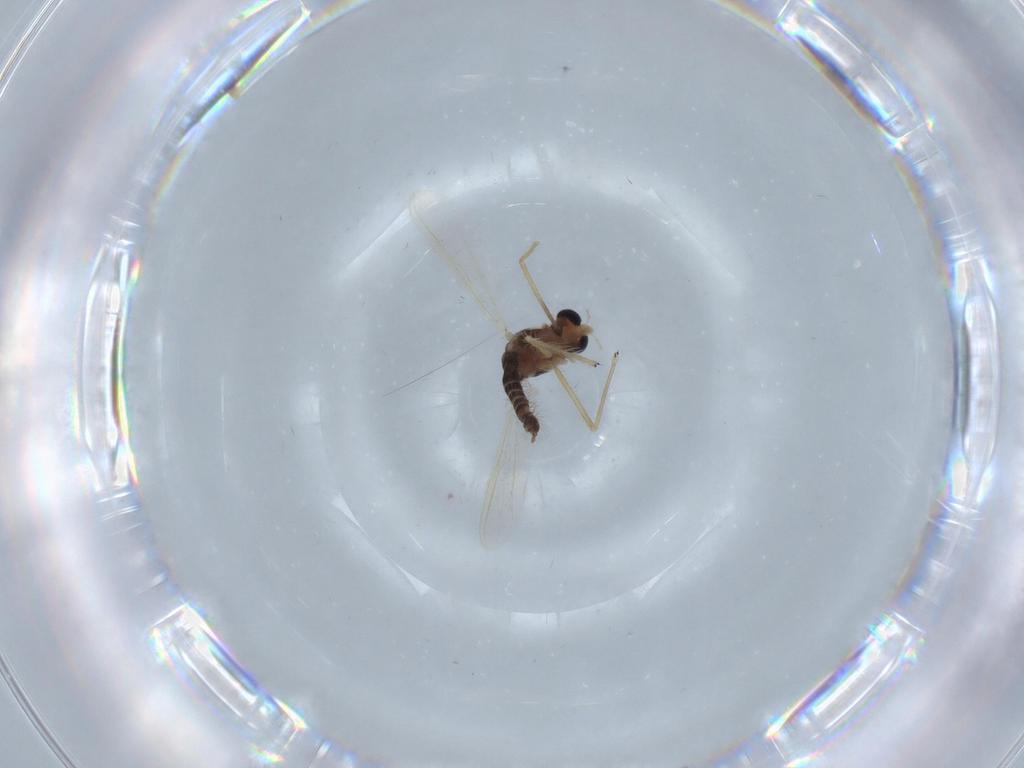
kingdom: Animalia
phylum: Arthropoda
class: Insecta
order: Diptera
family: Chironomidae
